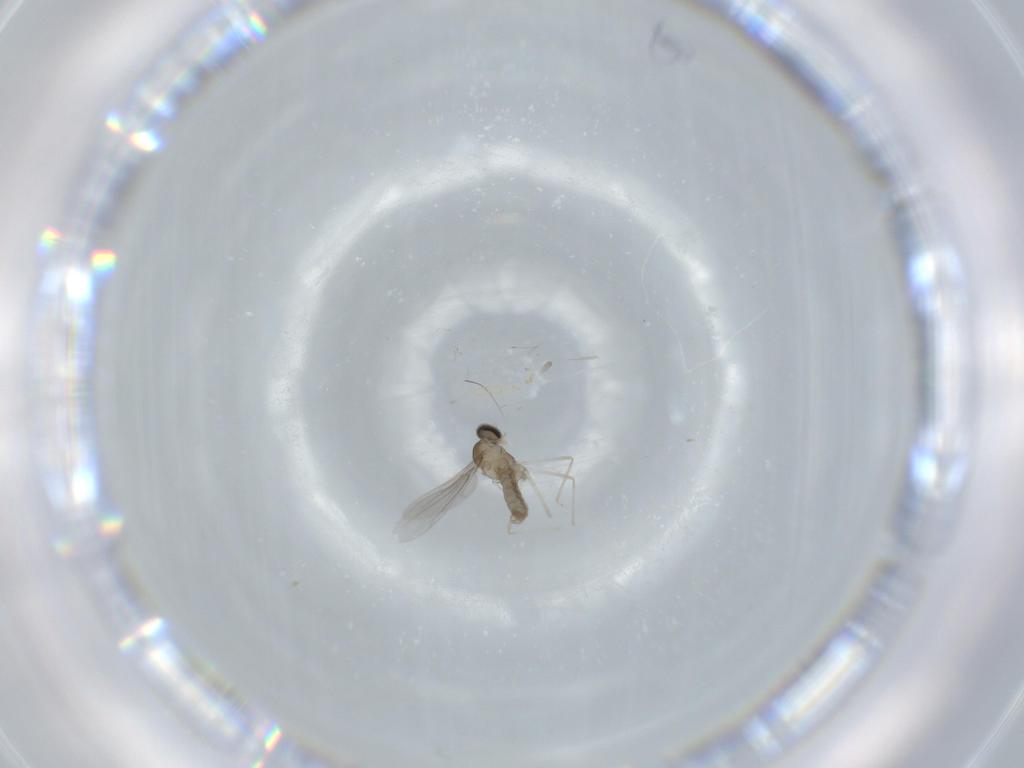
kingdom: Animalia
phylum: Arthropoda
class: Insecta
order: Diptera
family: Cecidomyiidae
